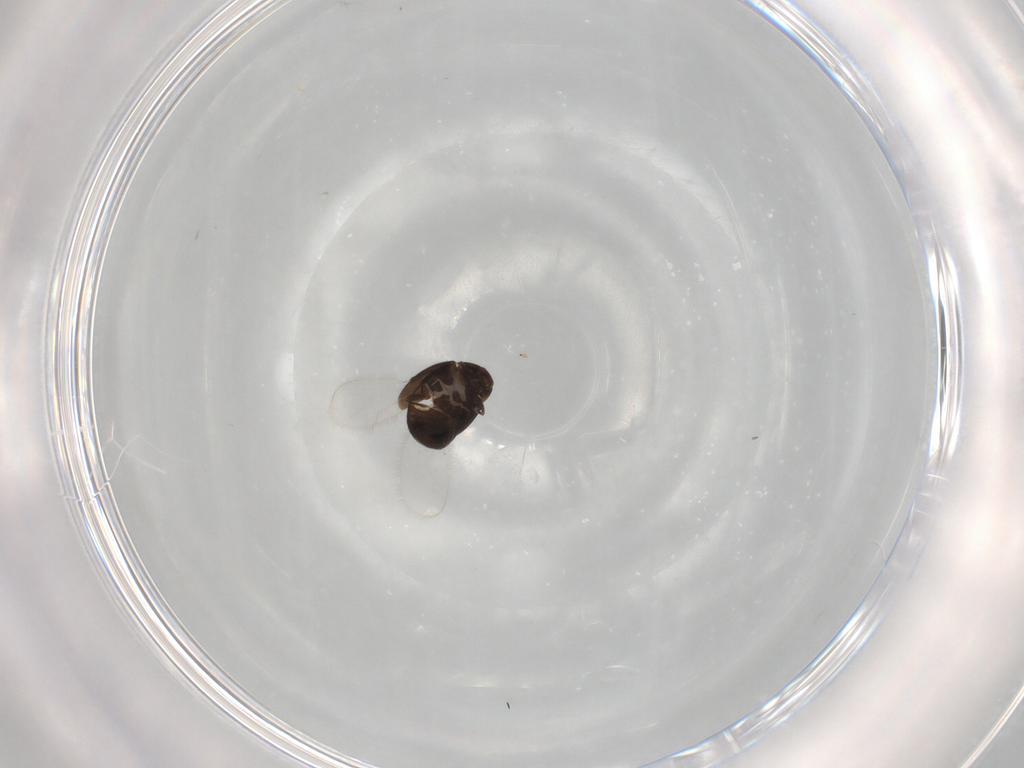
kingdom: Animalia
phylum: Arthropoda
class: Insecta
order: Coleoptera
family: Corylophidae
